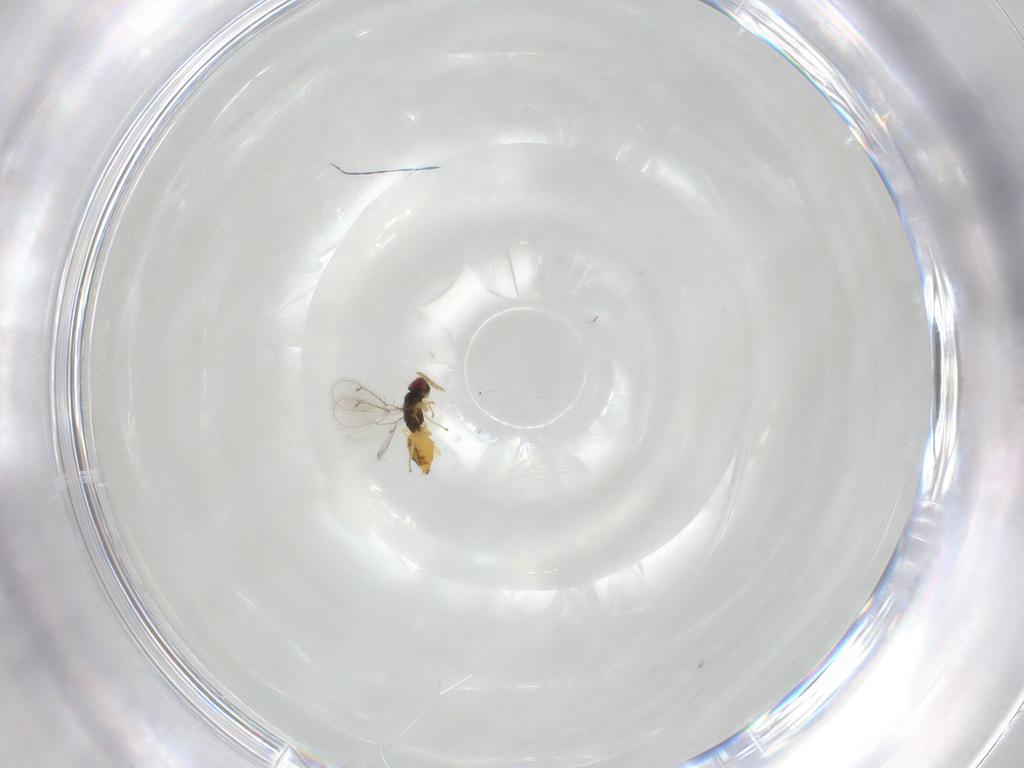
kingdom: Animalia
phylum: Arthropoda
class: Insecta
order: Hymenoptera
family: Eulophidae
